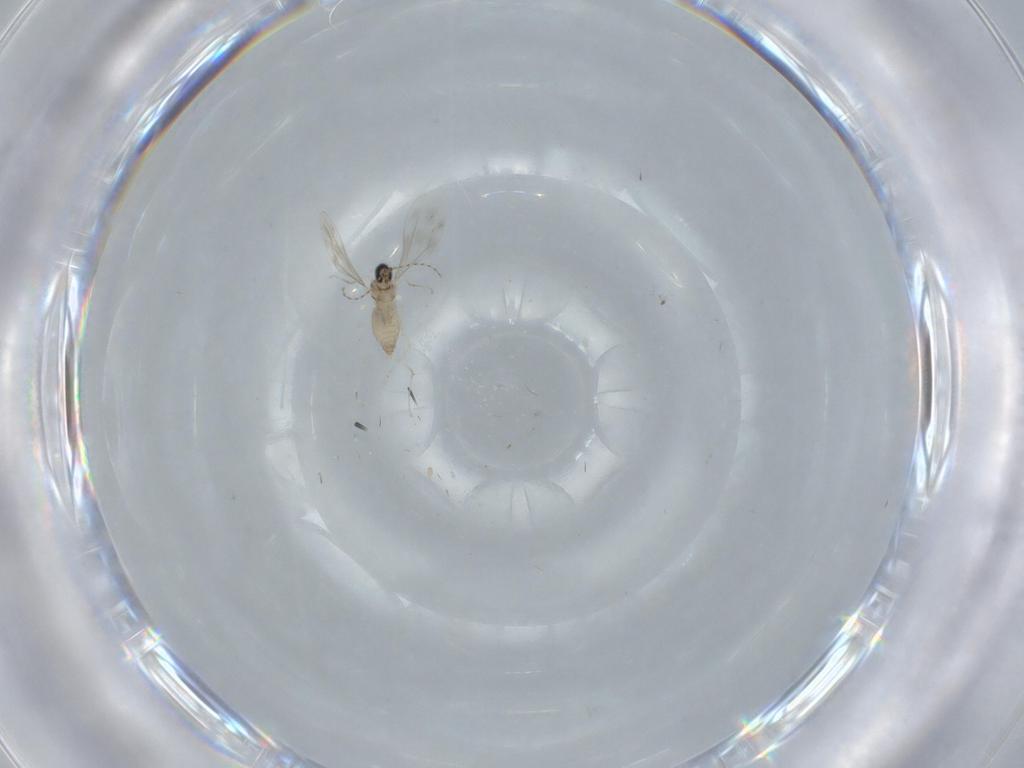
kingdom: Animalia
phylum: Arthropoda
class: Insecta
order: Diptera
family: Cecidomyiidae
